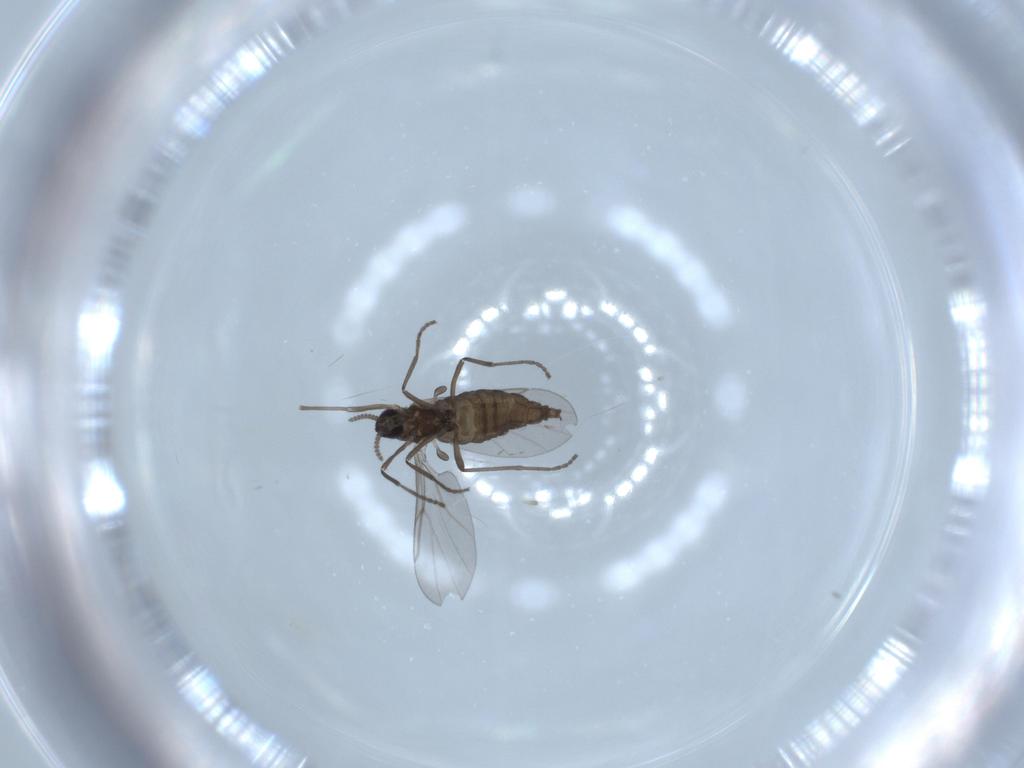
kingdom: Animalia
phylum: Arthropoda
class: Insecta
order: Diptera
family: Cecidomyiidae
